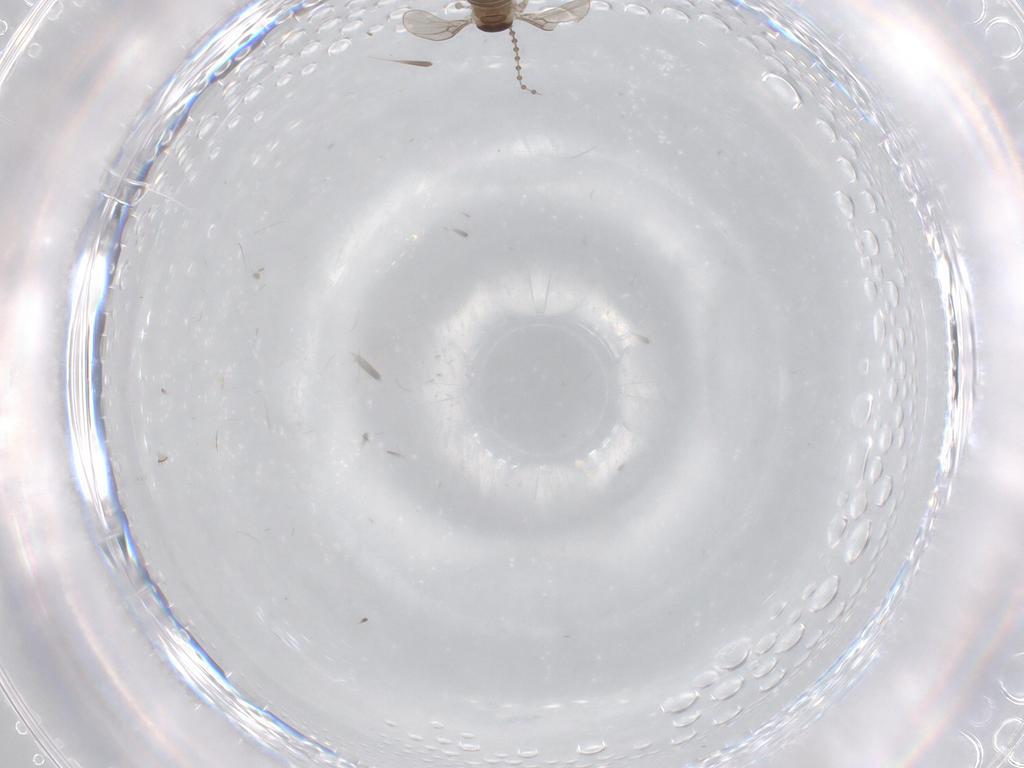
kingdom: Animalia
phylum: Arthropoda
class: Insecta
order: Diptera
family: Cecidomyiidae
